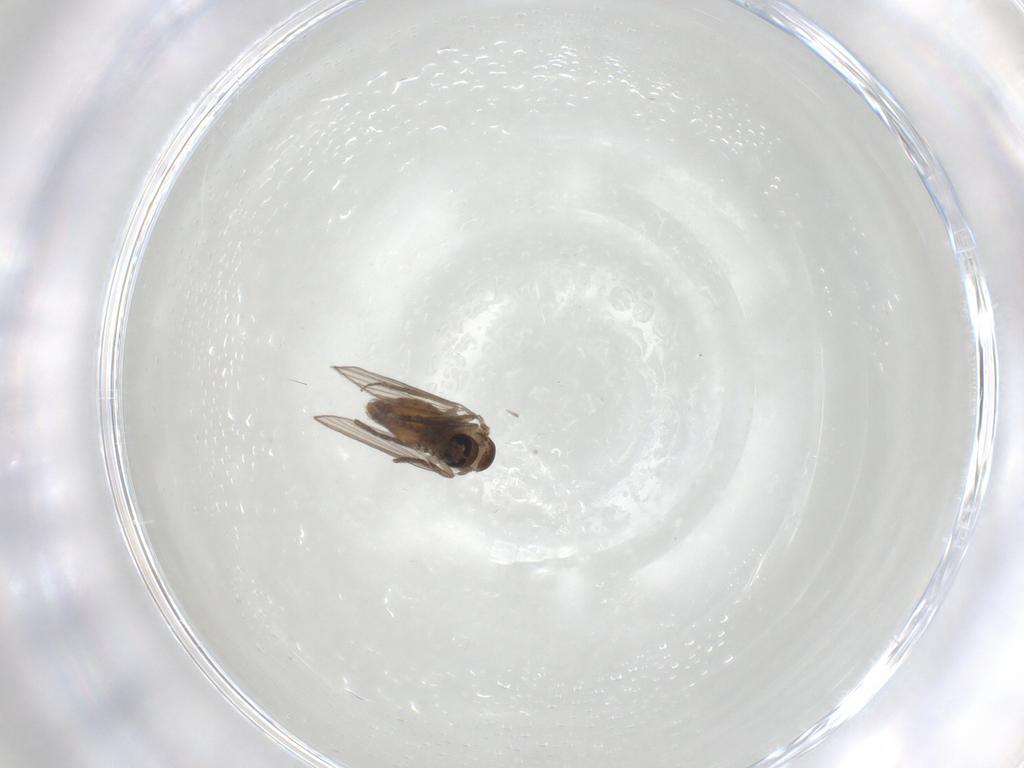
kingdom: Animalia
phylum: Arthropoda
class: Insecta
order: Diptera
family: Psychodidae
